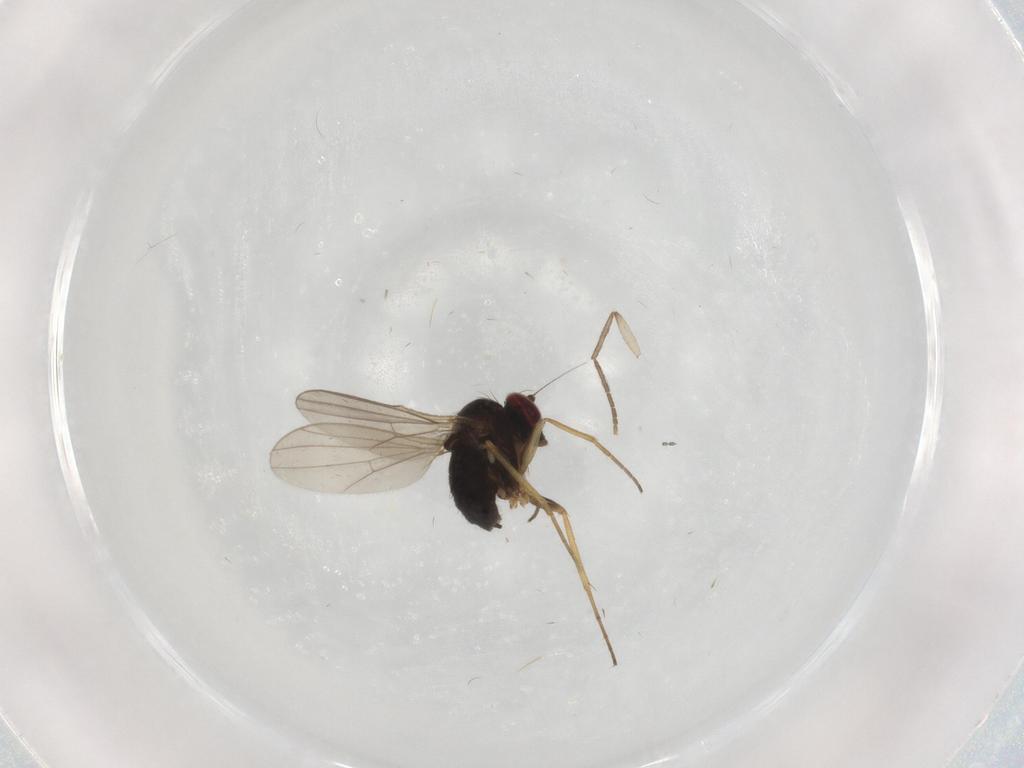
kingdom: Animalia
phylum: Arthropoda
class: Insecta
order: Diptera
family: Dolichopodidae
